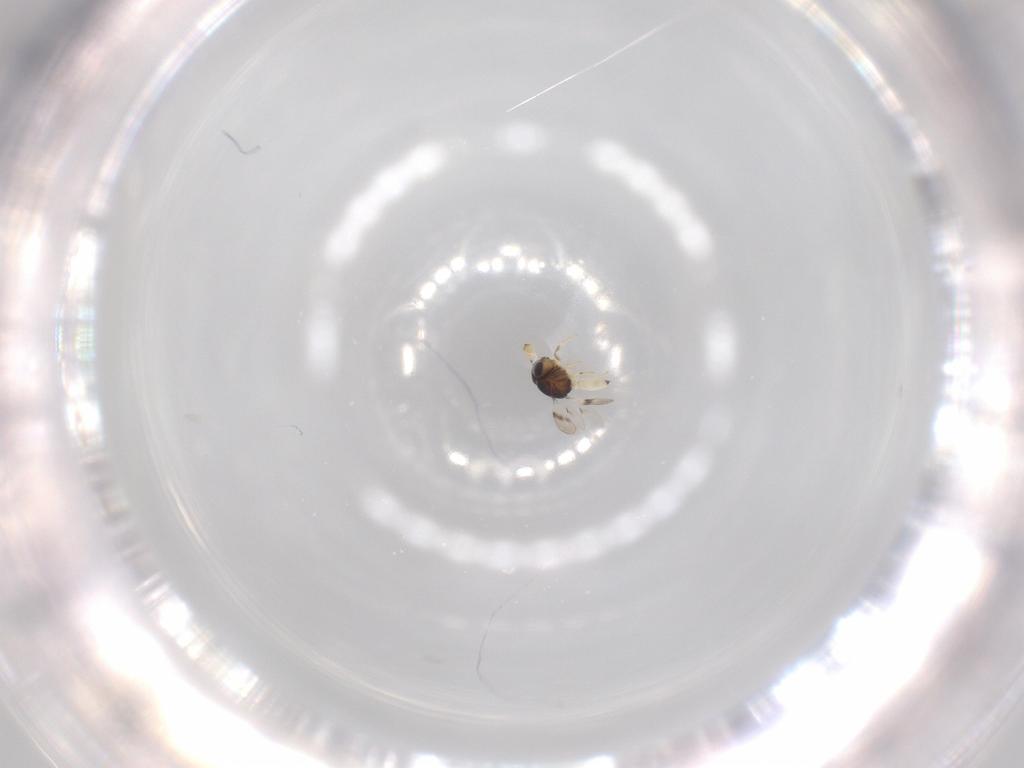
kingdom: Animalia
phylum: Arthropoda
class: Insecta
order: Hymenoptera
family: Scelionidae
